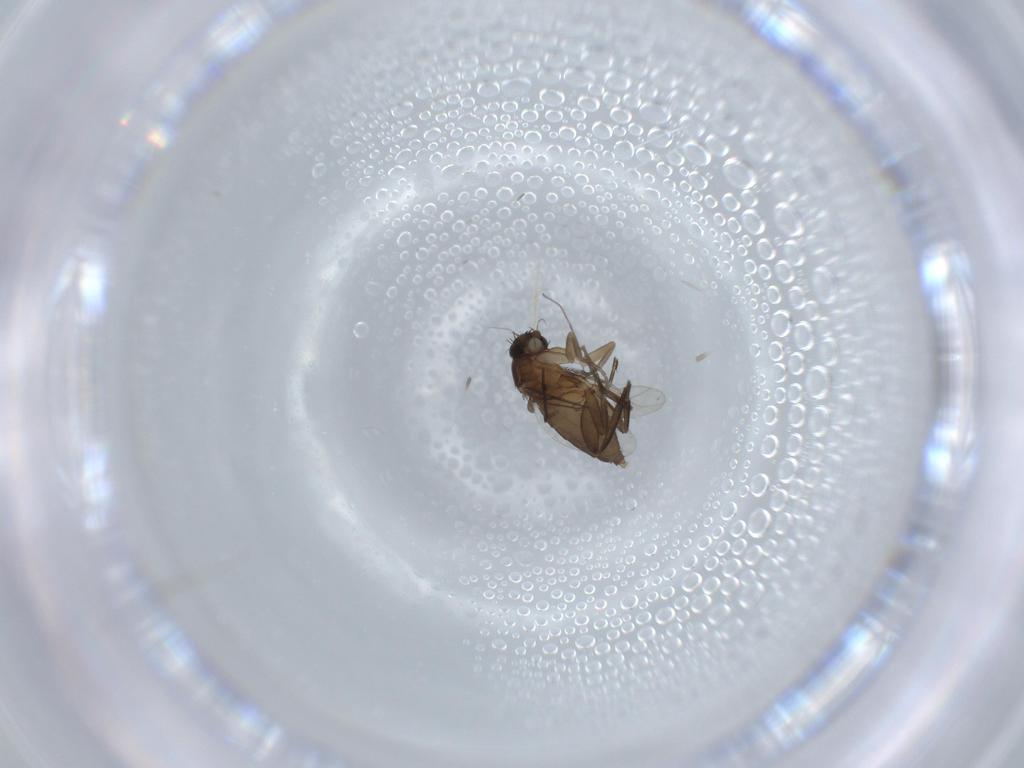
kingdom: Animalia
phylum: Arthropoda
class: Insecta
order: Diptera
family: Phoridae
